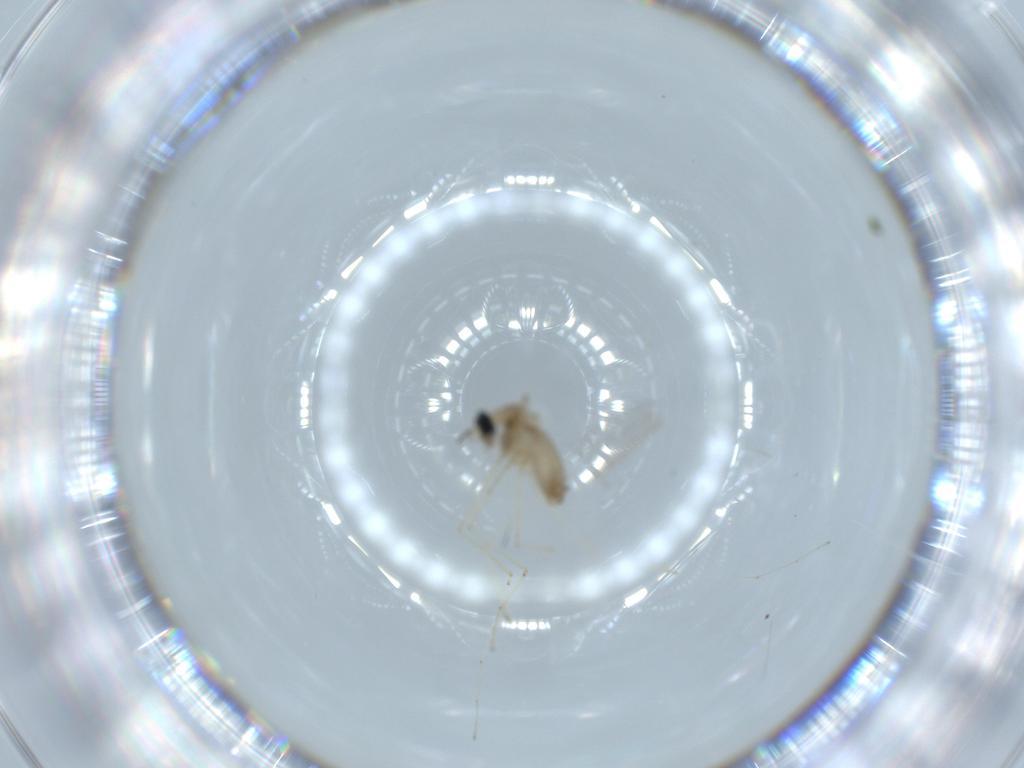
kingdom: Animalia
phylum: Arthropoda
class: Insecta
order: Diptera
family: Cecidomyiidae
